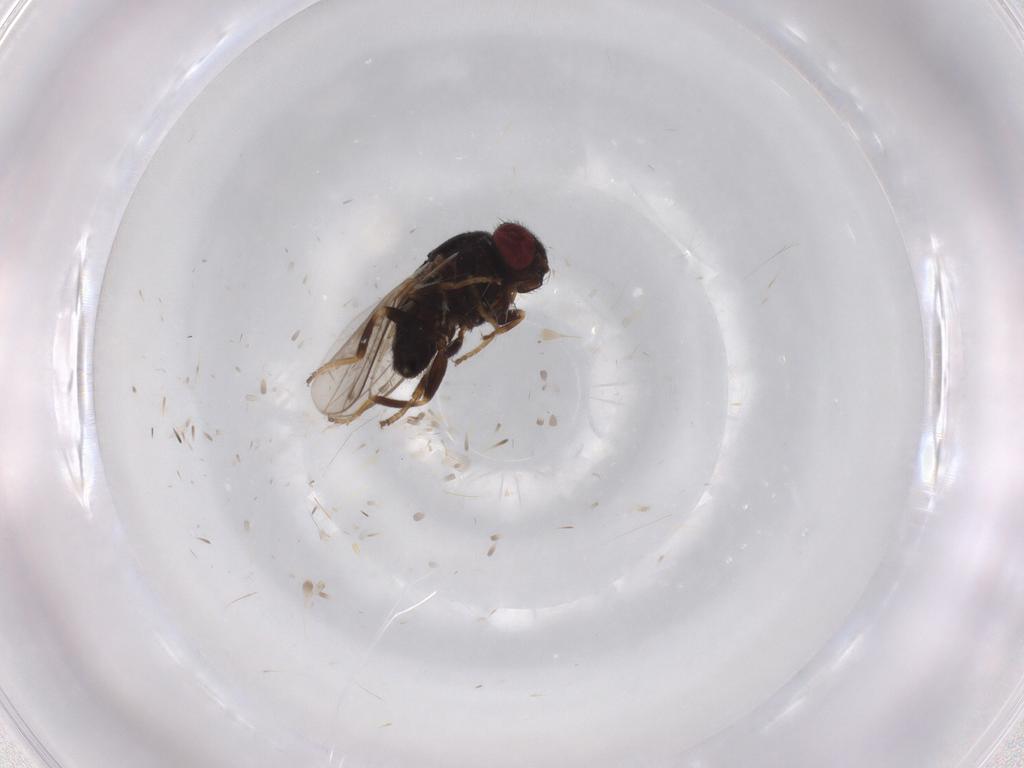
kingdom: Animalia
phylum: Arthropoda
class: Insecta
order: Diptera
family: Chloropidae
